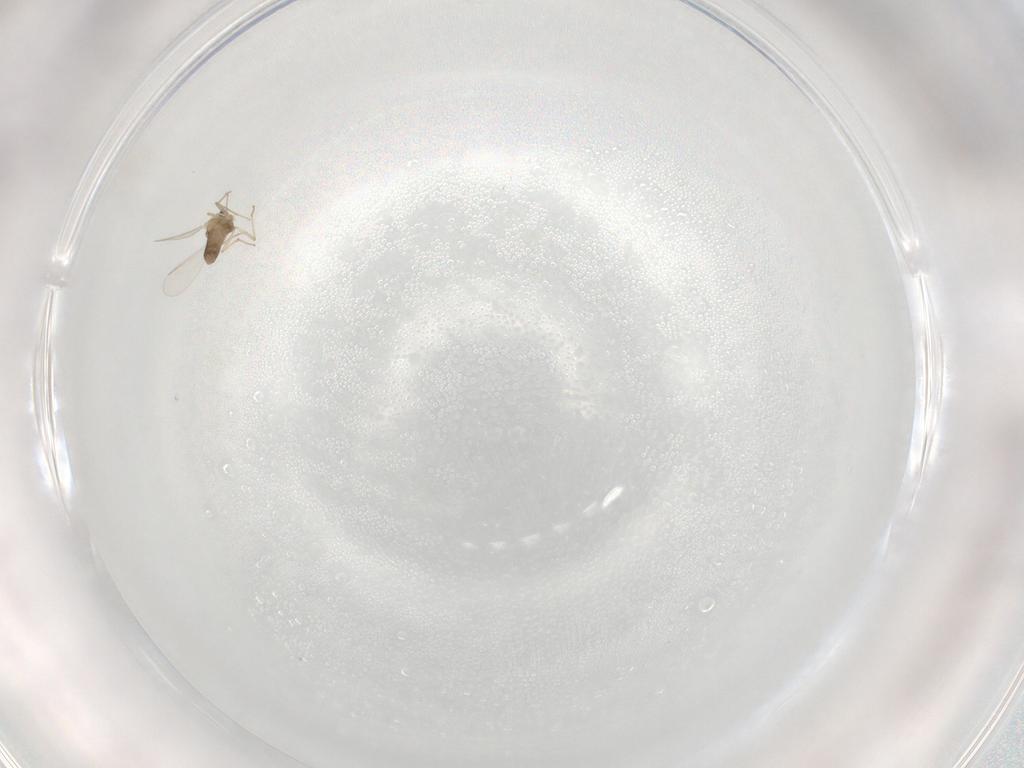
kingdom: Animalia
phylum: Arthropoda
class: Insecta
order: Diptera
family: Chironomidae
